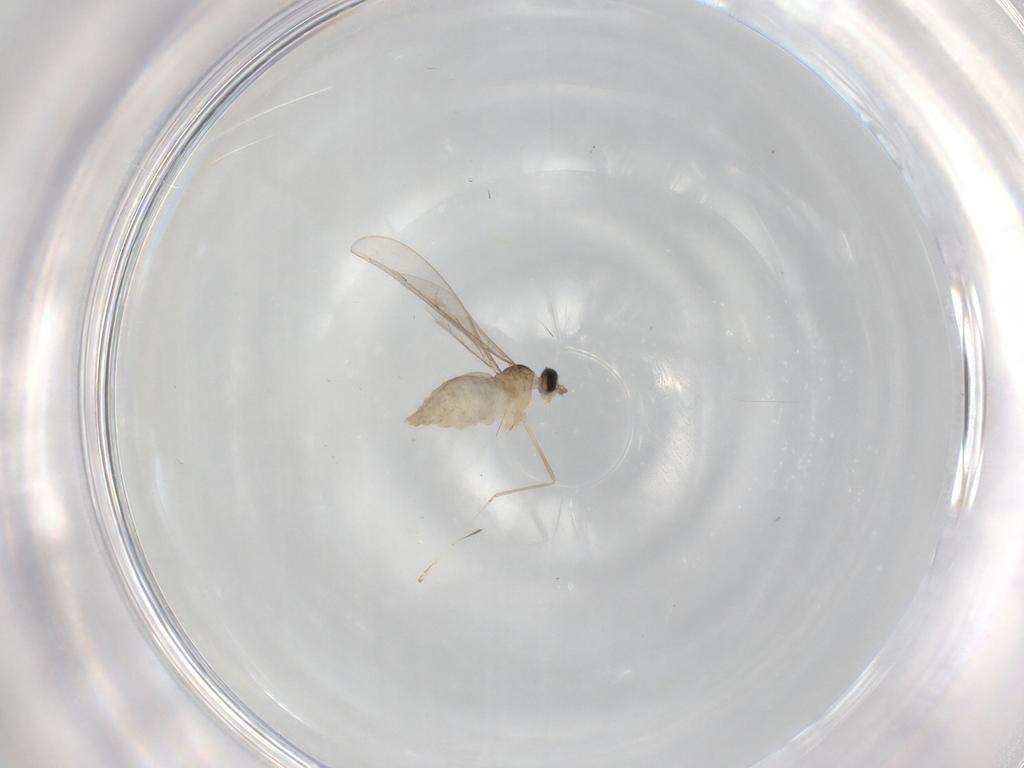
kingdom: Animalia
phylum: Arthropoda
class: Insecta
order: Diptera
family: Cecidomyiidae
